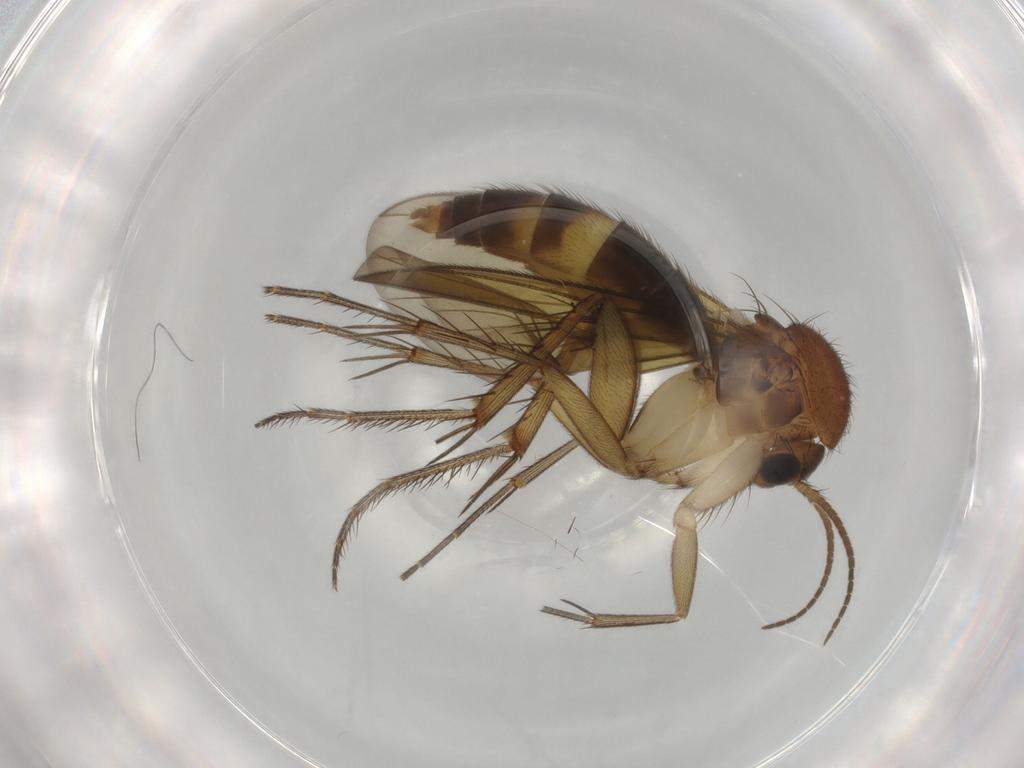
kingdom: Animalia
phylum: Arthropoda
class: Insecta
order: Diptera
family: Mycetophilidae
